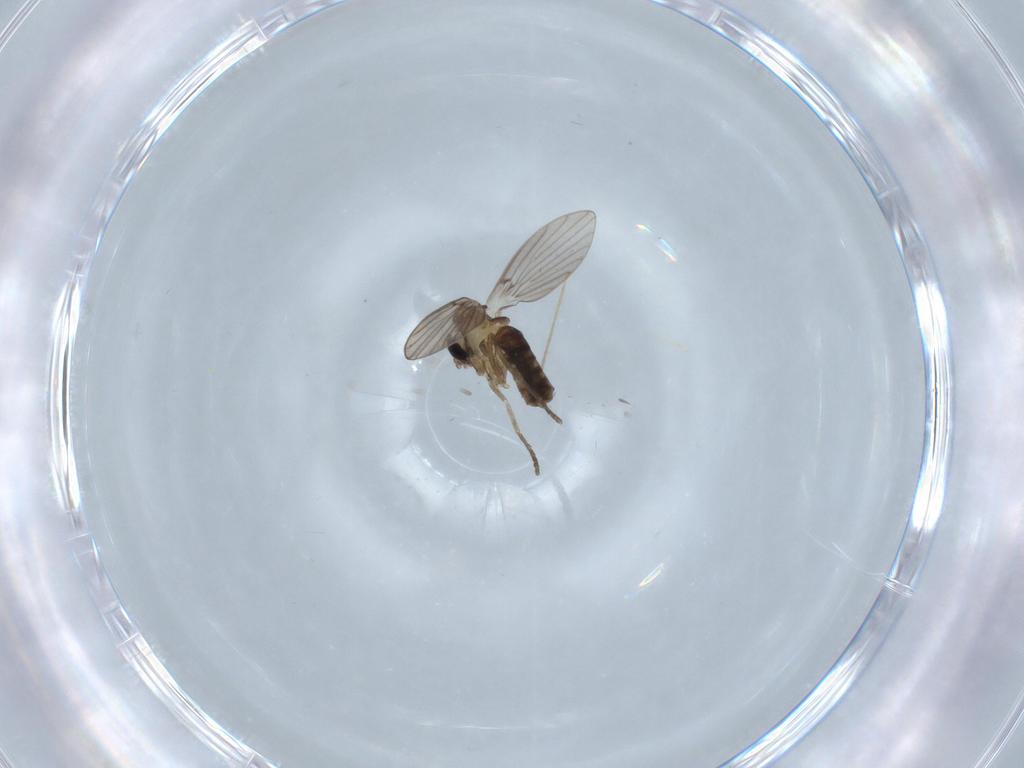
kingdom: Animalia
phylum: Arthropoda
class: Insecta
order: Diptera
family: Chironomidae
